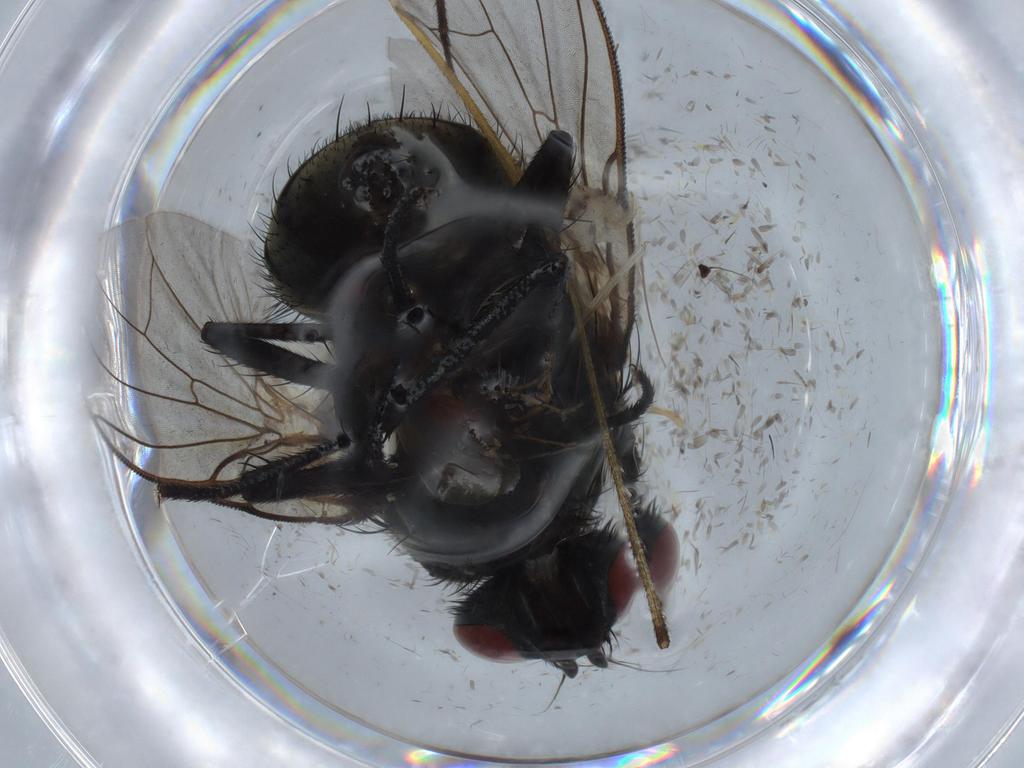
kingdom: Animalia
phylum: Arthropoda
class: Insecta
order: Diptera
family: Muscidae
